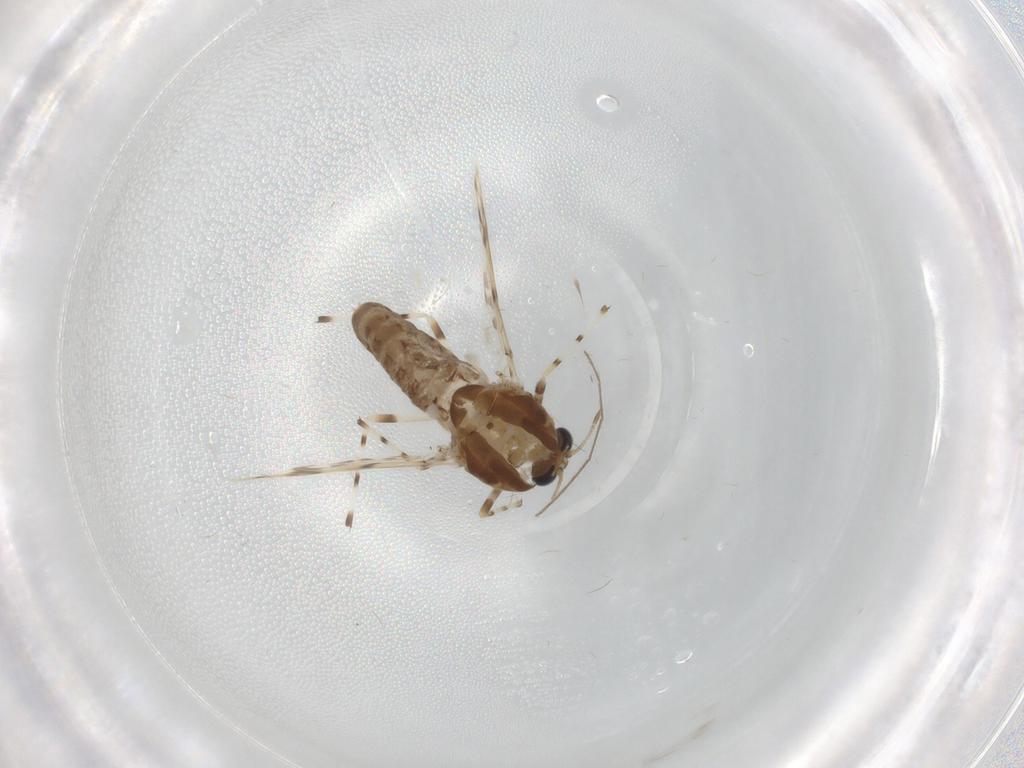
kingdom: Animalia
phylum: Arthropoda
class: Insecta
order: Diptera
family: Chironomidae
